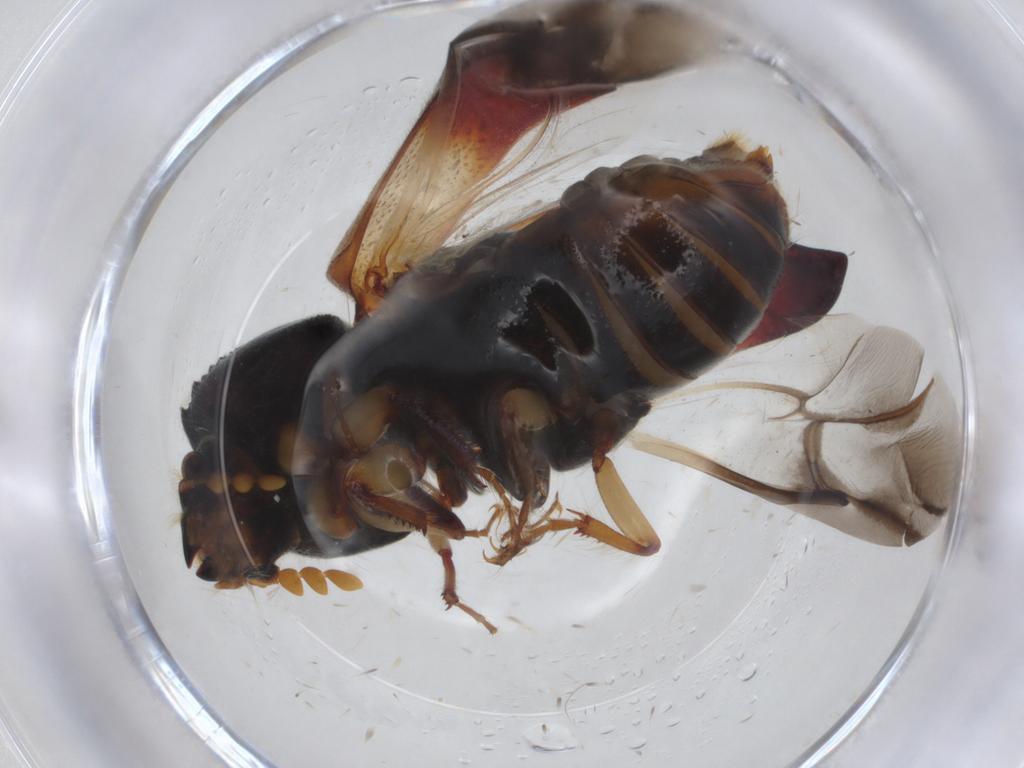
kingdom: Animalia
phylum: Arthropoda
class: Insecta
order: Coleoptera
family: Bostrichidae
